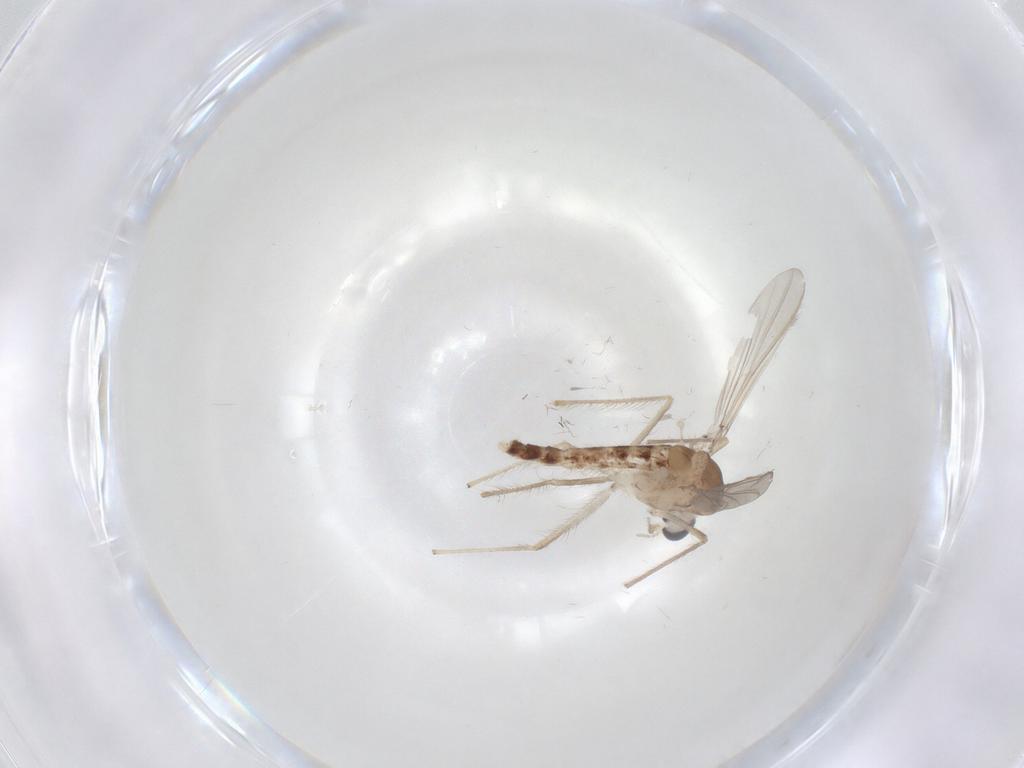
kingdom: Animalia
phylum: Arthropoda
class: Insecta
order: Diptera
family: Chironomidae
